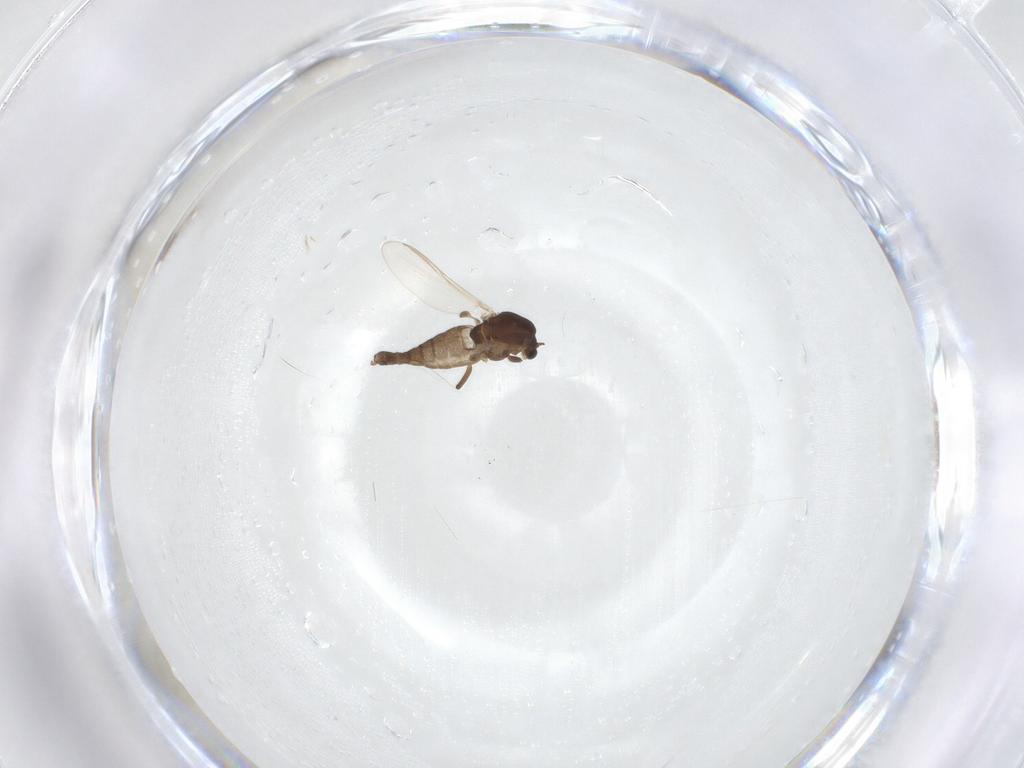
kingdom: Animalia
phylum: Arthropoda
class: Insecta
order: Diptera
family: Chironomidae
